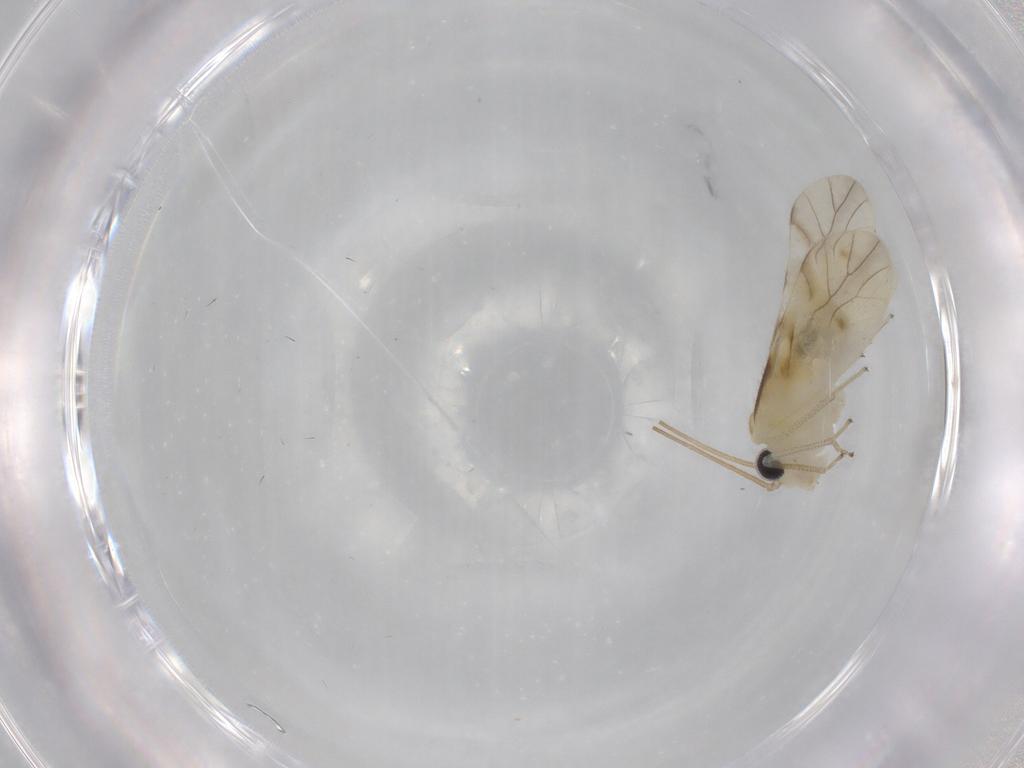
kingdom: Animalia
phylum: Arthropoda
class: Insecta
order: Psocodea
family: Caeciliusidae
